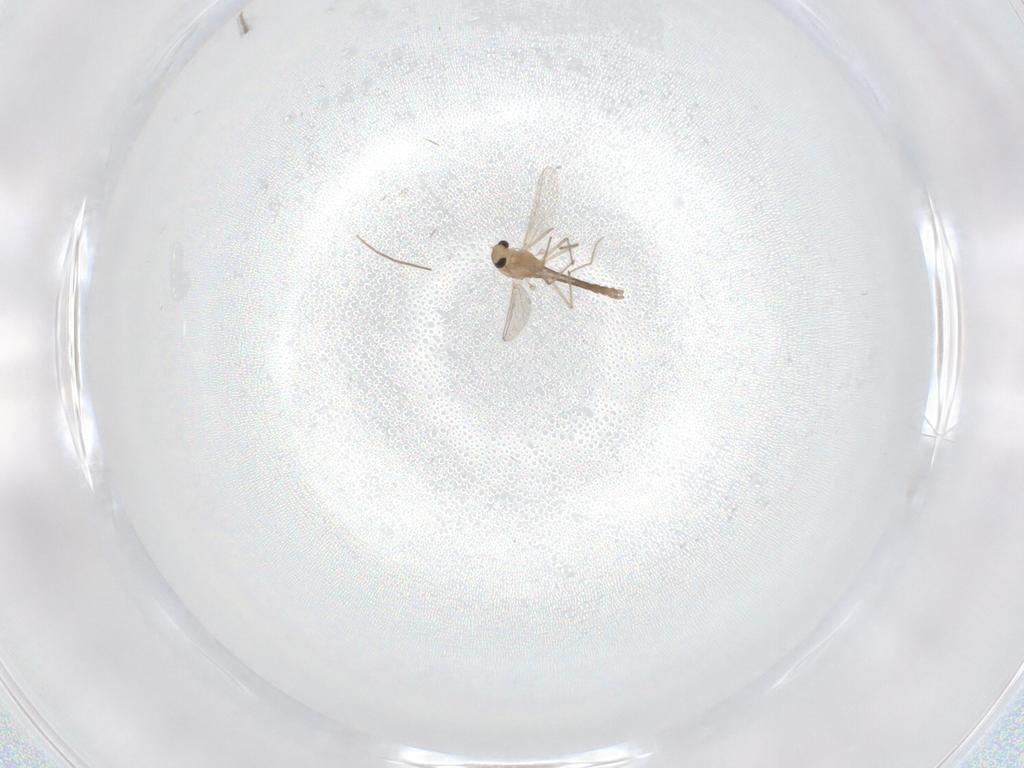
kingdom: Animalia
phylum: Arthropoda
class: Insecta
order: Diptera
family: Chironomidae
